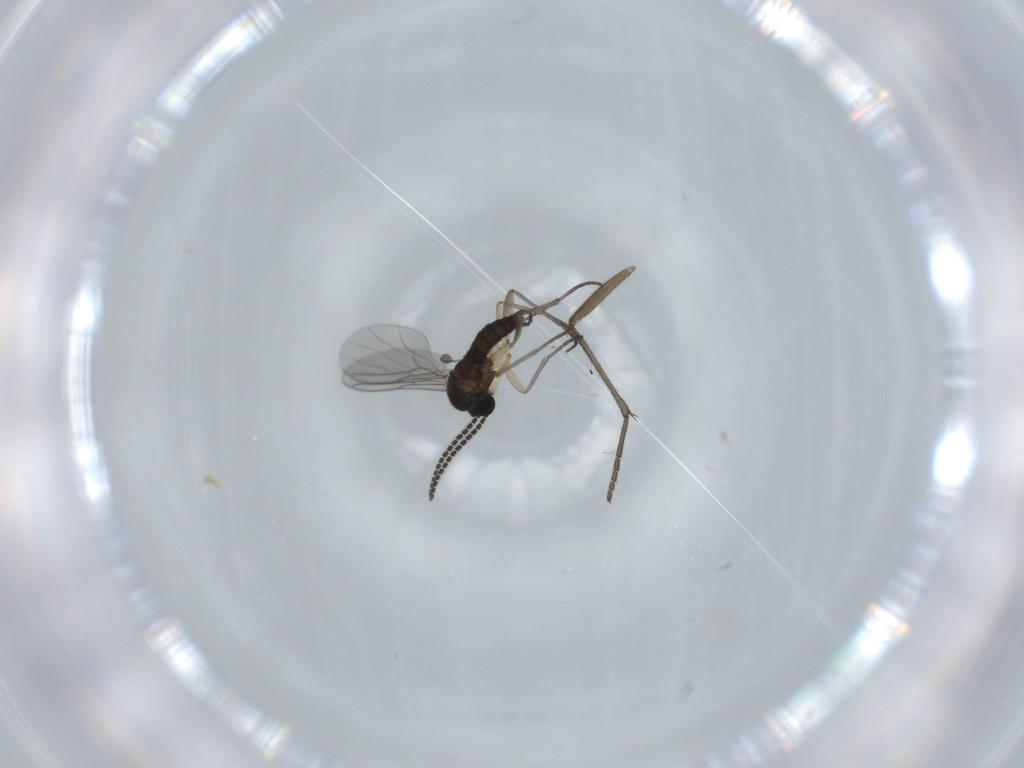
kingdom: Animalia
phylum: Arthropoda
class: Insecta
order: Diptera
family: Sciaridae
